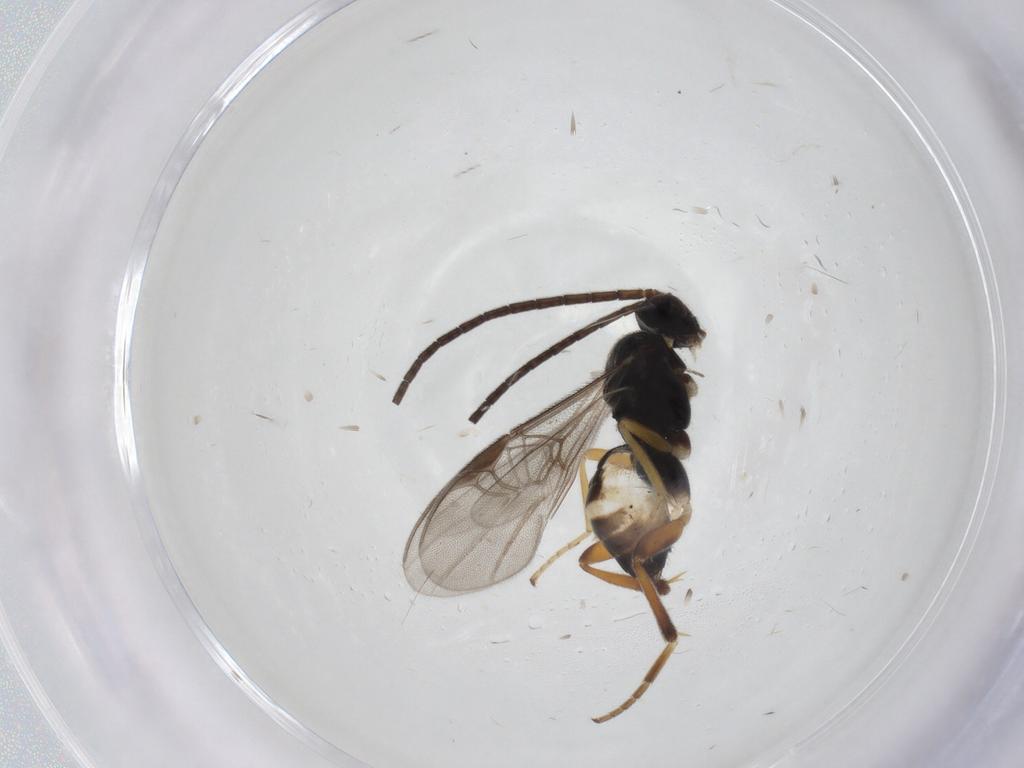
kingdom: Animalia
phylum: Arthropoda
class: Insecta
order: Hymenoptera
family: Braconidae
